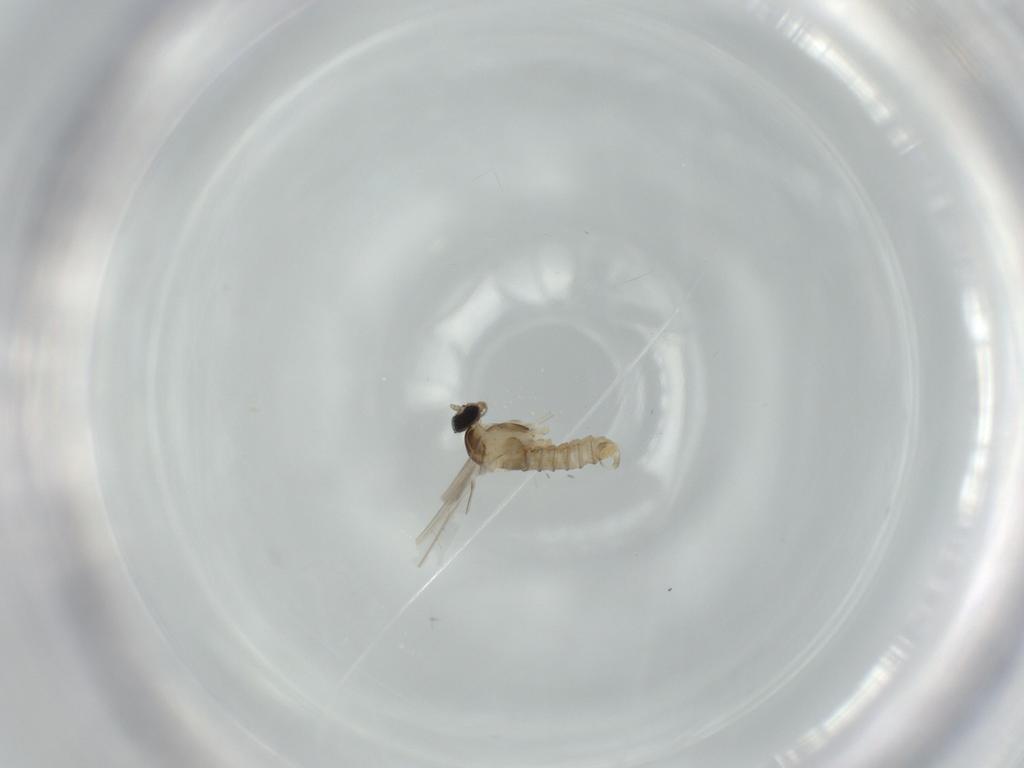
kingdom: Animalia
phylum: Arthropoda
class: Insecta
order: Diptera
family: Cecidomyiidae
